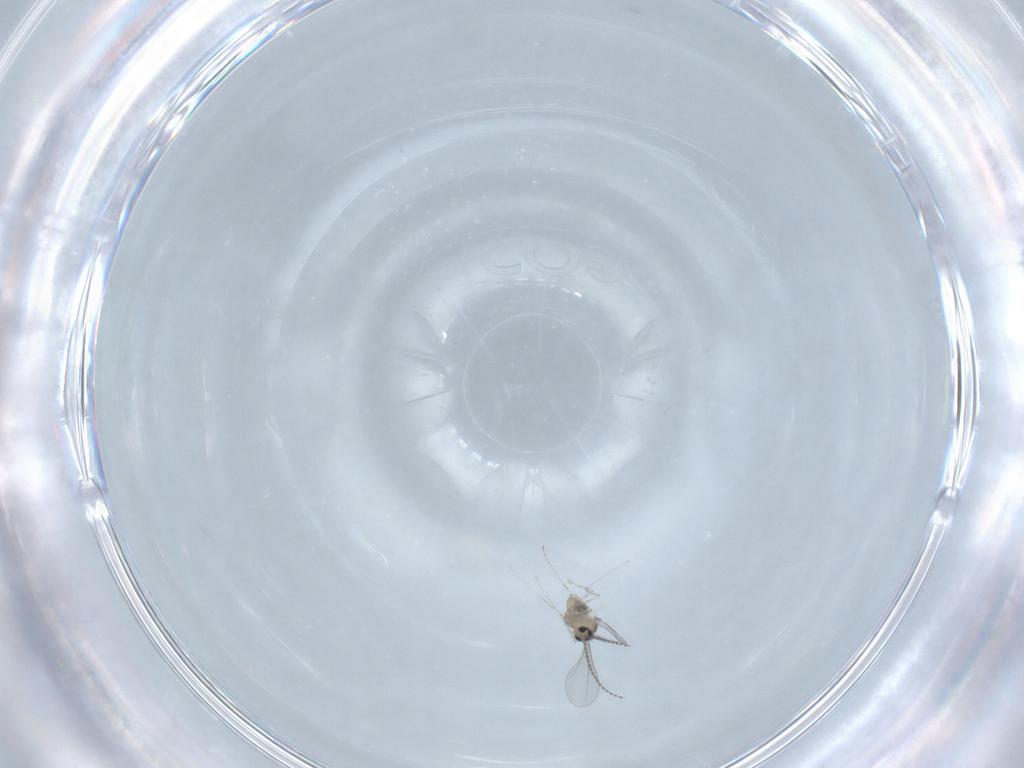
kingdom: Animalia
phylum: Arthropoda
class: Insecta
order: Diptera
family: Cecidomyiidae
